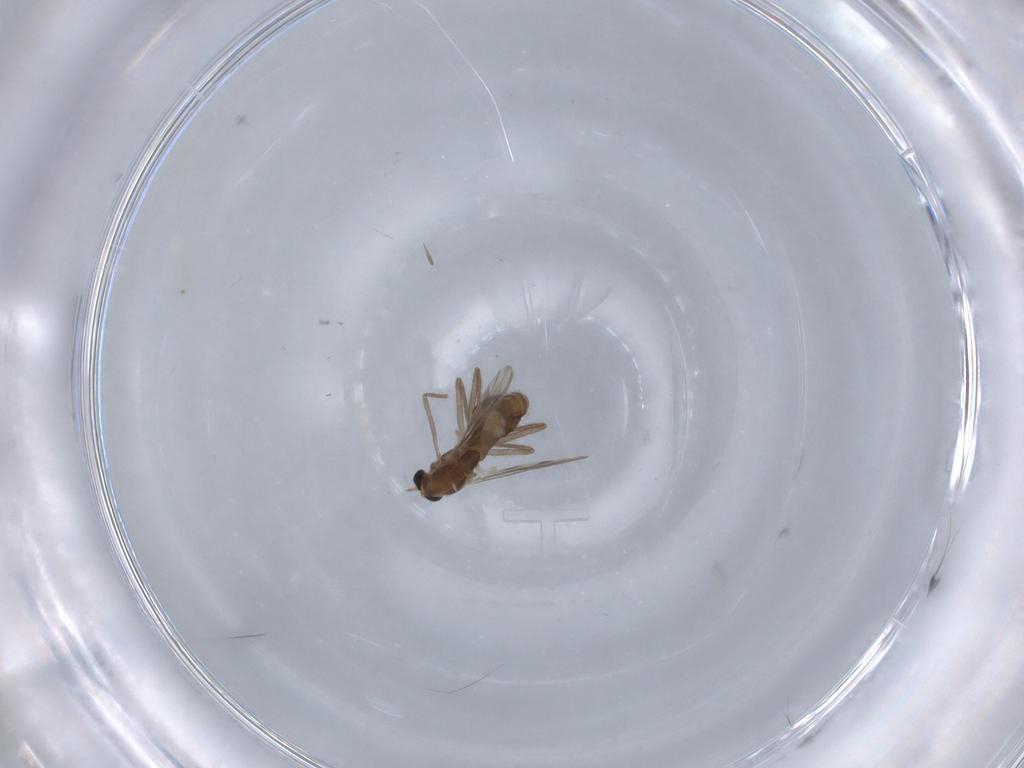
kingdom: Animalia
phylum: Arthropoda
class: Insecta
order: Diptera
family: Chironomidae
